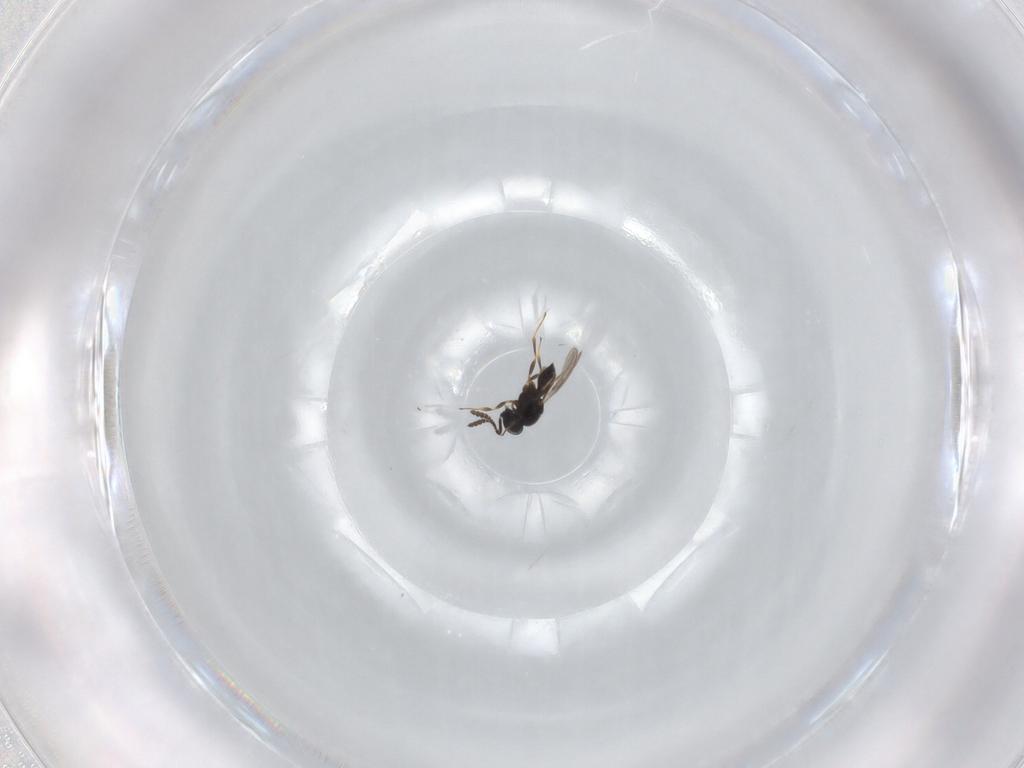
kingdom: Animalia
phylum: Arthropoda
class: Insecta
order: Hymenoptera
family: Scelionidae
